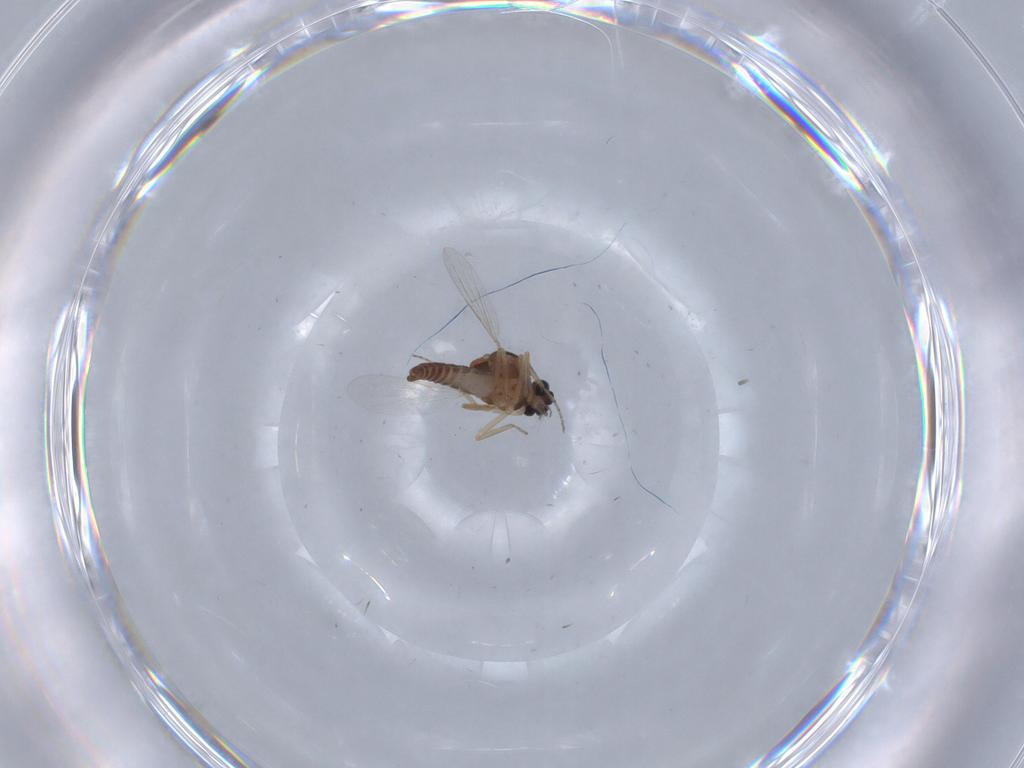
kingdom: Animalia
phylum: Arthropoda
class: Insecta
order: Diptera
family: Ceratopogonidae
